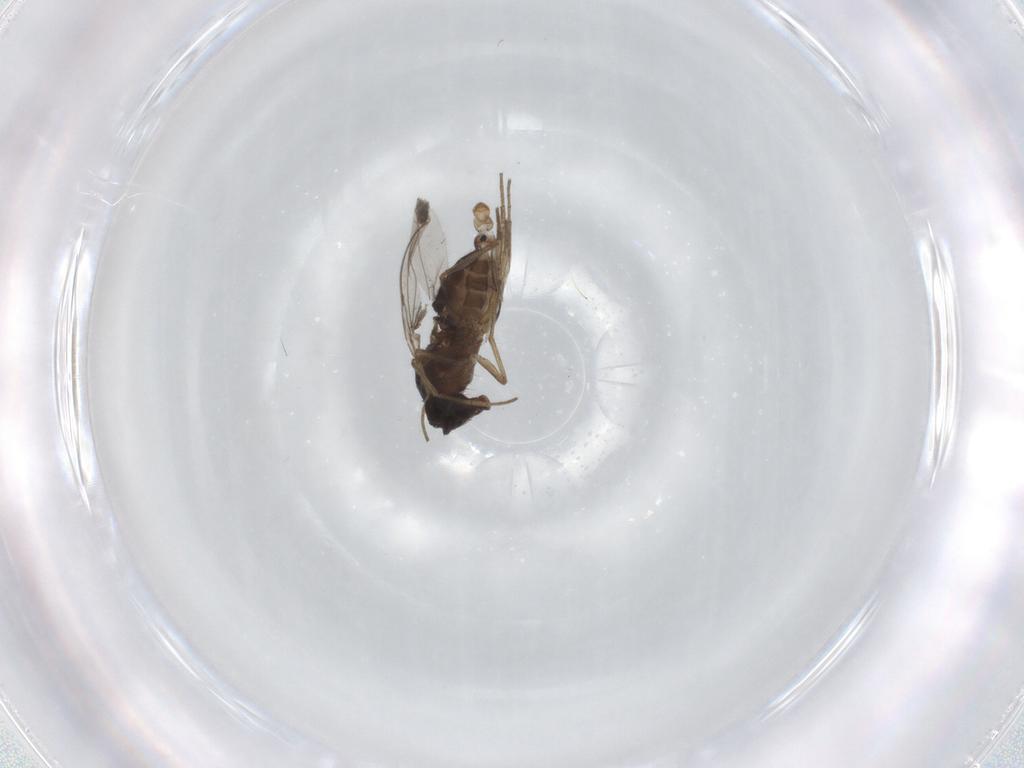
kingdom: Animalia
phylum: Arthropoda
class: Insecta
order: Diptera
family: Dolichopodidae
